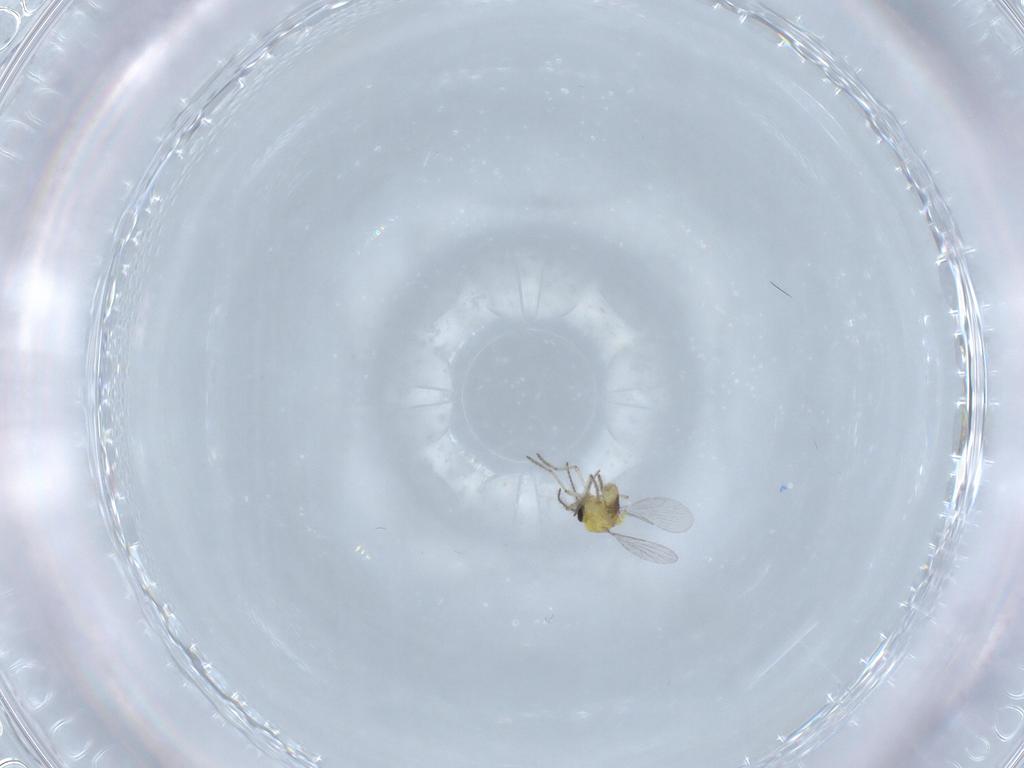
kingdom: Animalia
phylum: Arthropoda
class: Insecta
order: Diptera
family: Ceratopogonidae
